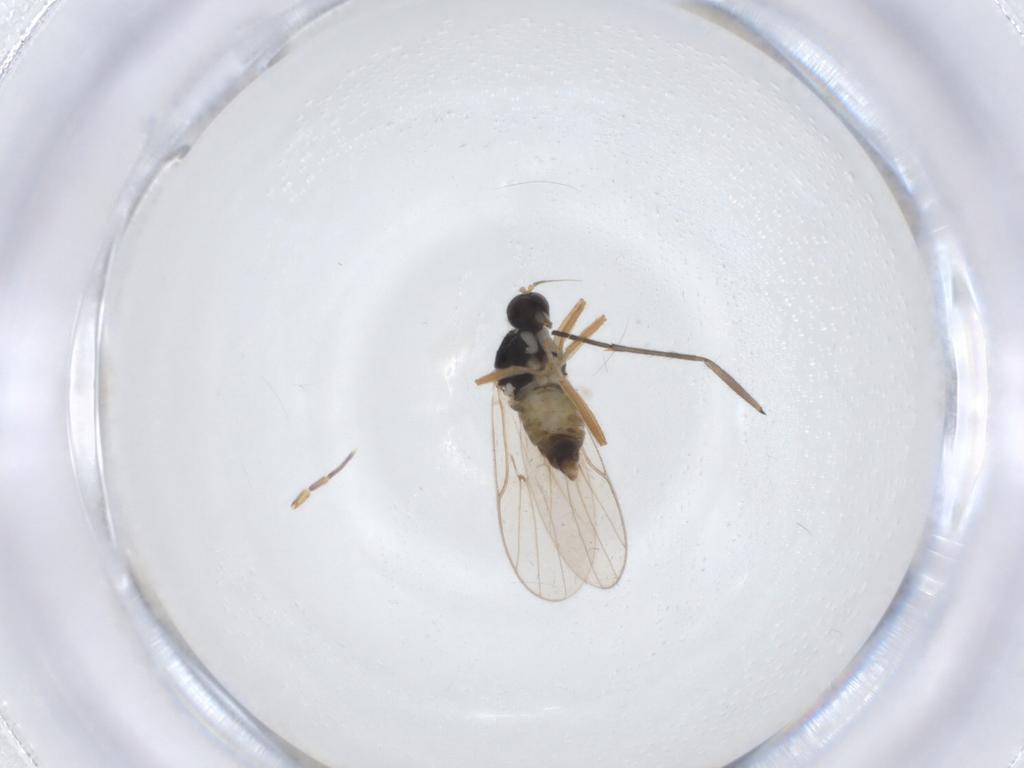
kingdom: Animalia
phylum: Arthropoda
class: Insecta
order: Diptera
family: Hybotidae
